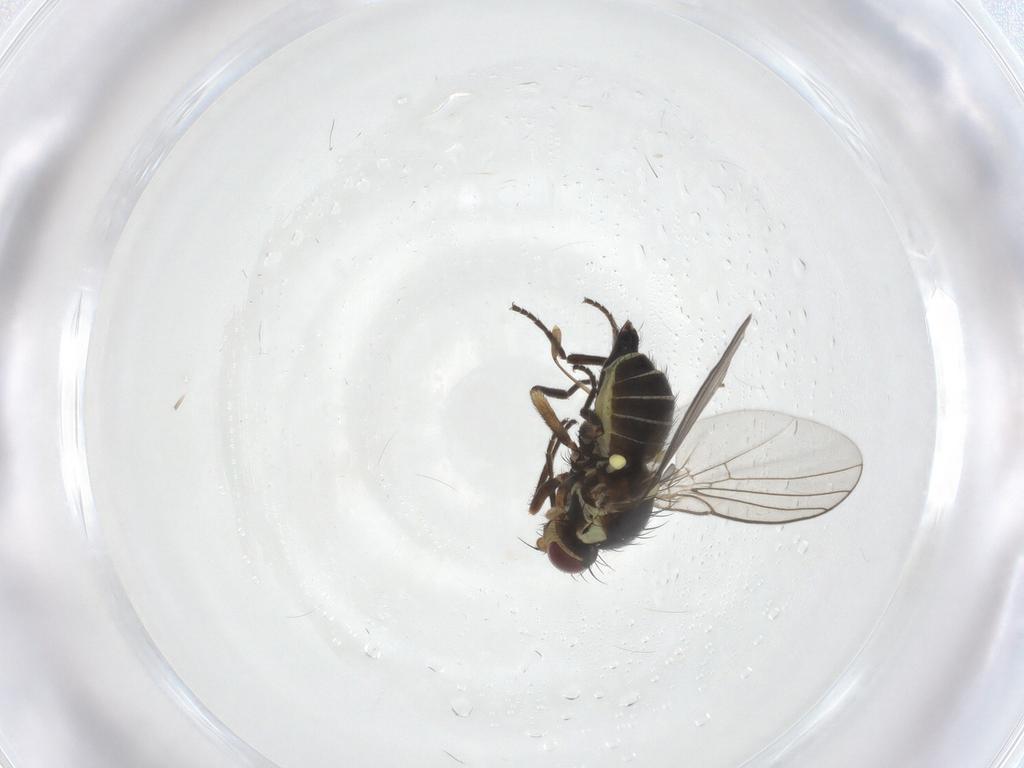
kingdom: Animalia
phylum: Arthropoda
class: Insecta
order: Diptera
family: Agromyzidae
